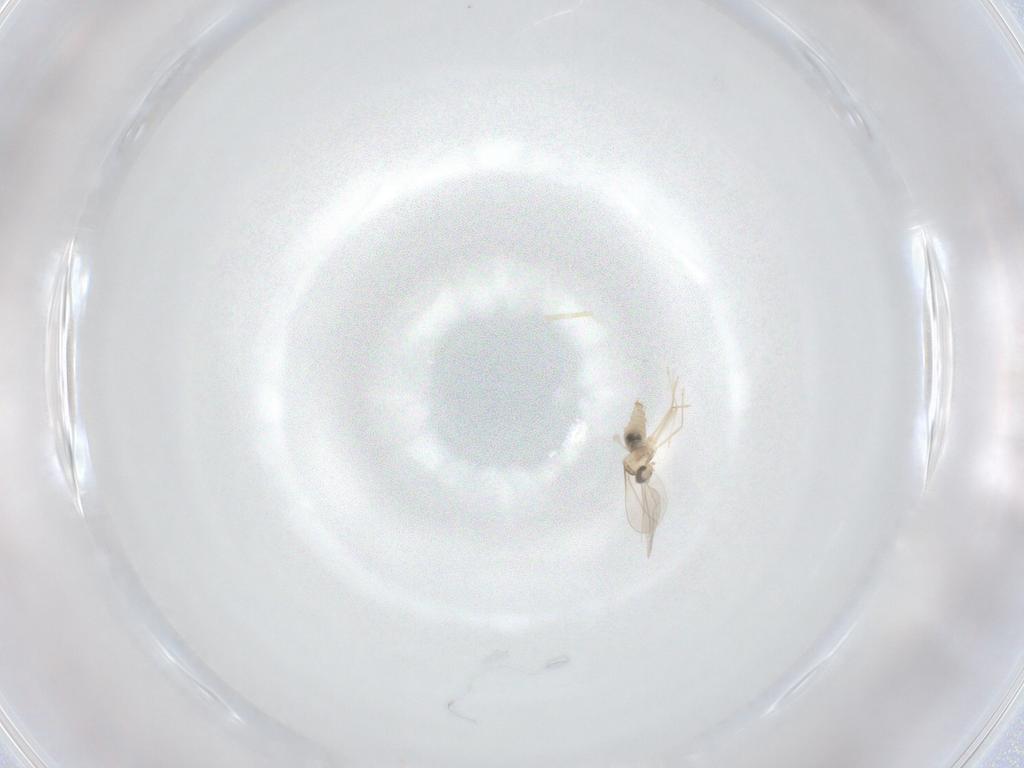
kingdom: Animalia
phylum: Arthropoda
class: Insecta
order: Diptera
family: Cecidomyiidae
